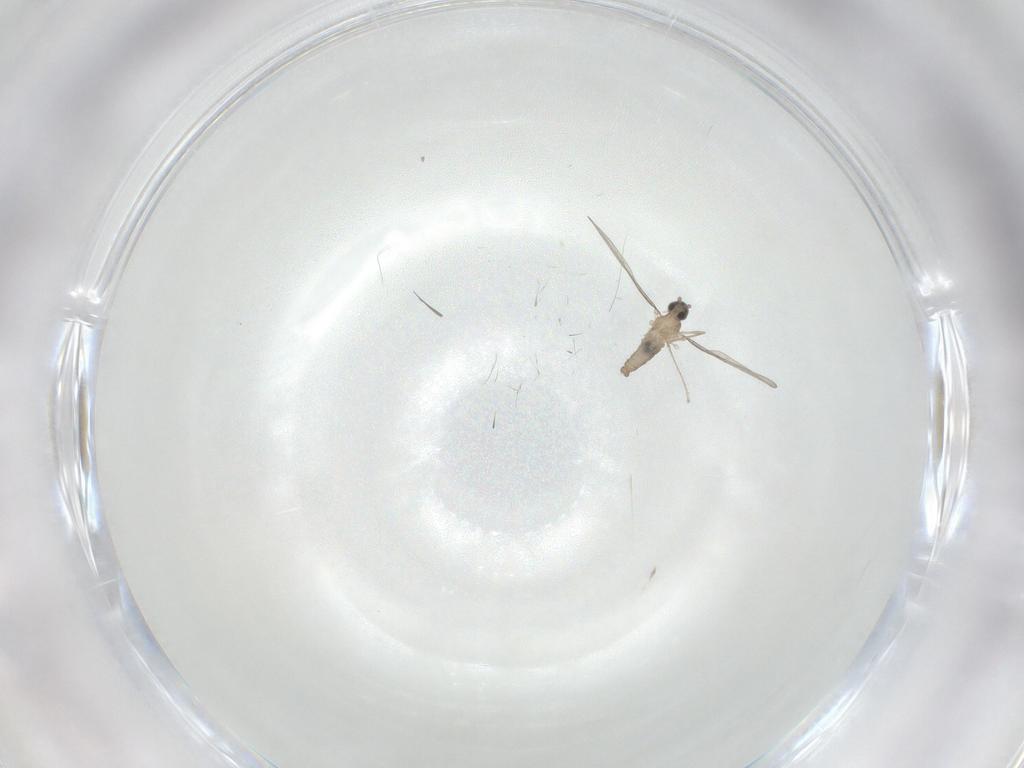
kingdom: Animalia
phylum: Arthropoda
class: Insecta
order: Diptera
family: Cecidomyiidae
